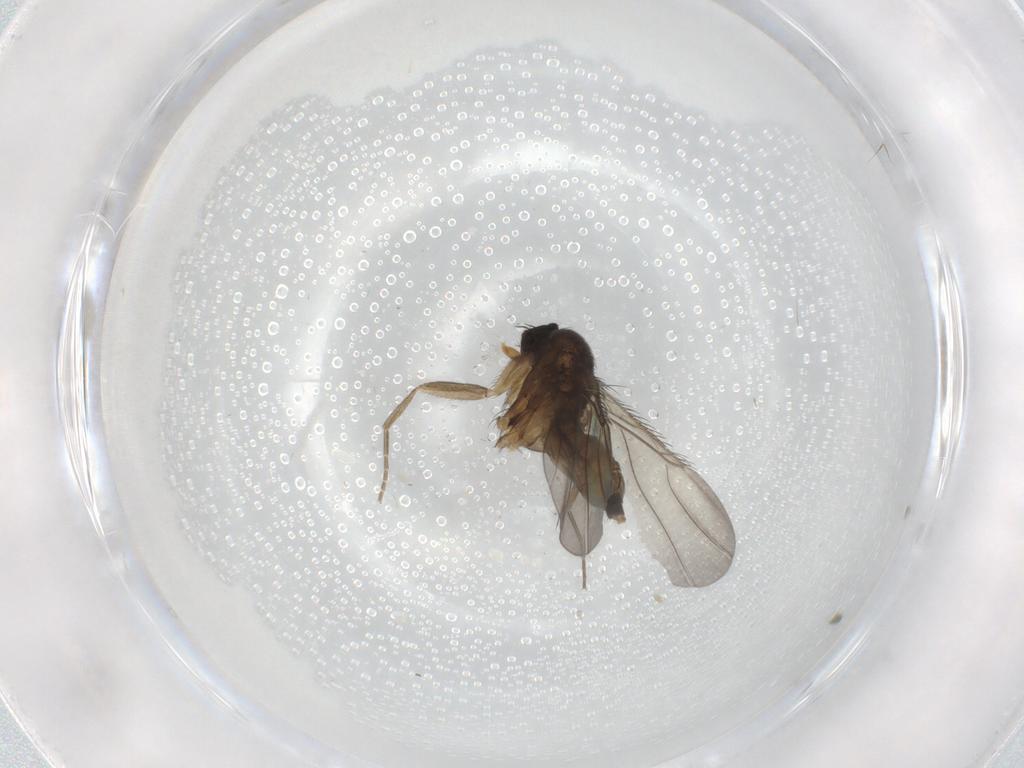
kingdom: Animalia
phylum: Arthropoda
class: Insecta
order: Diptera
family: Phoridae
